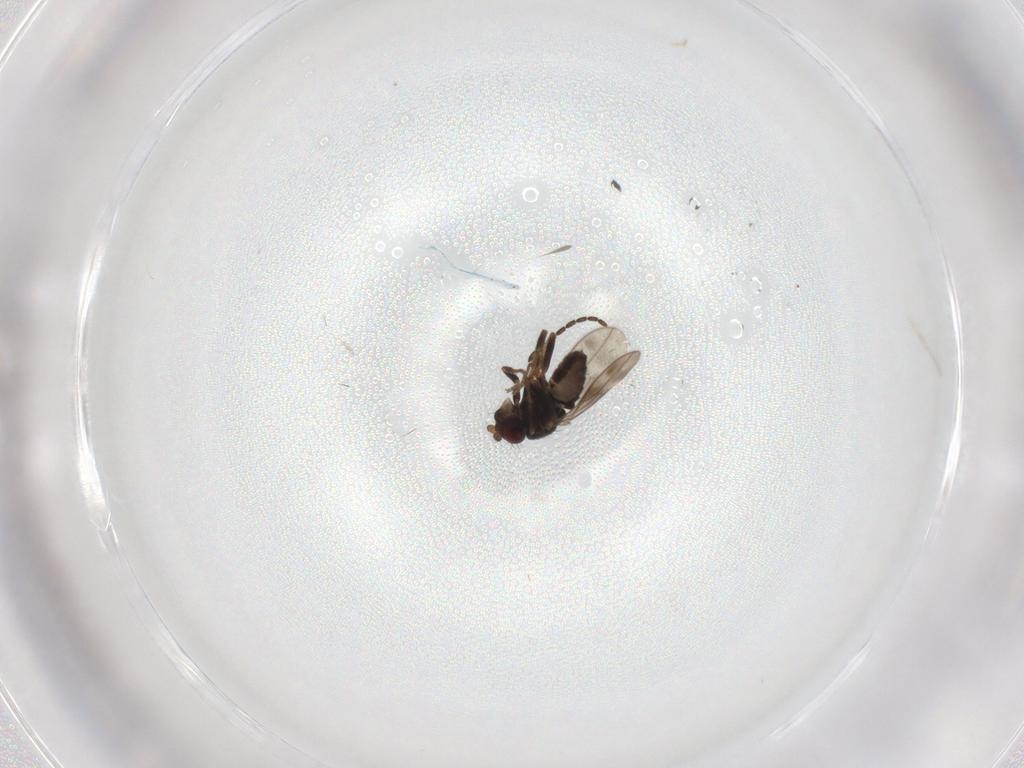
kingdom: Animalia
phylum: Arthropoda
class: Insecta
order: Diptera
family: Sphaeroceridae
